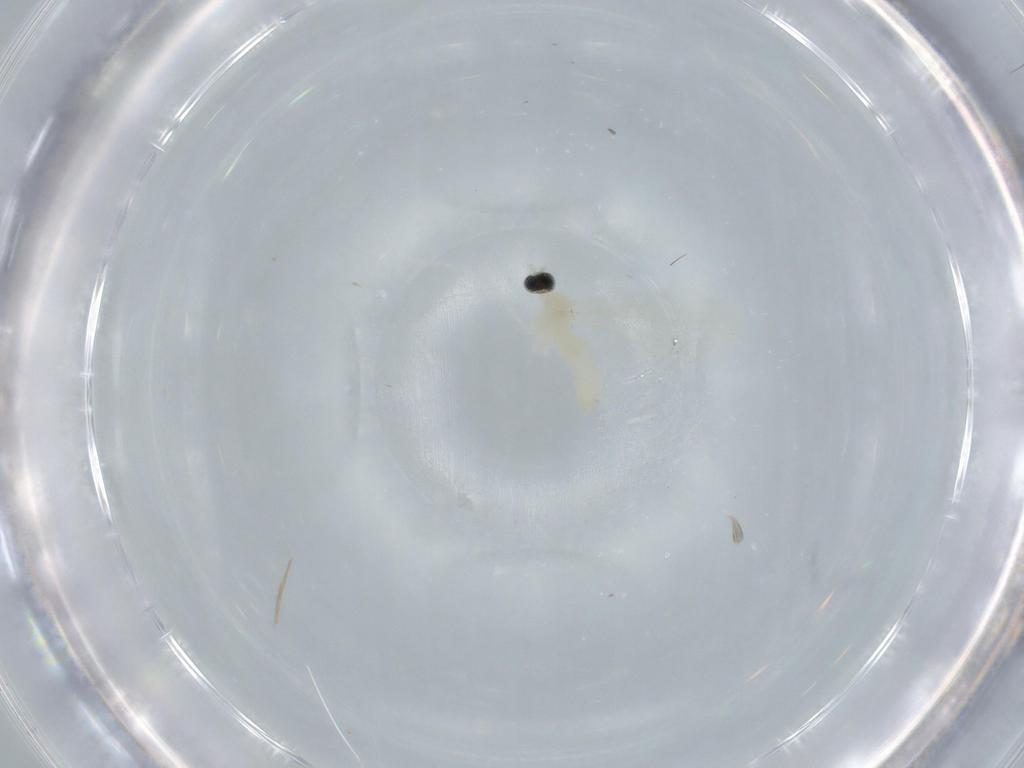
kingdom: Animalia
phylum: Arthropoda
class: Insecta
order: Diptera
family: Cecidomyiidae
